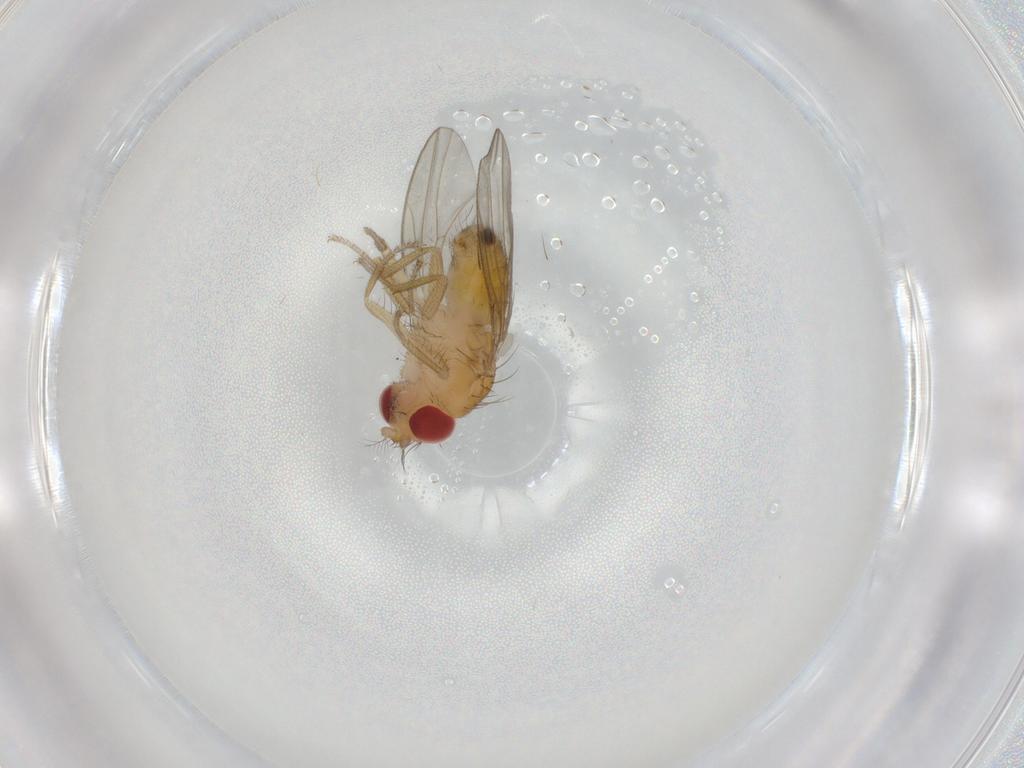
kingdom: Animalia
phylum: Arthropoda
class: Insecta
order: Diptera
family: Drosophilidae
